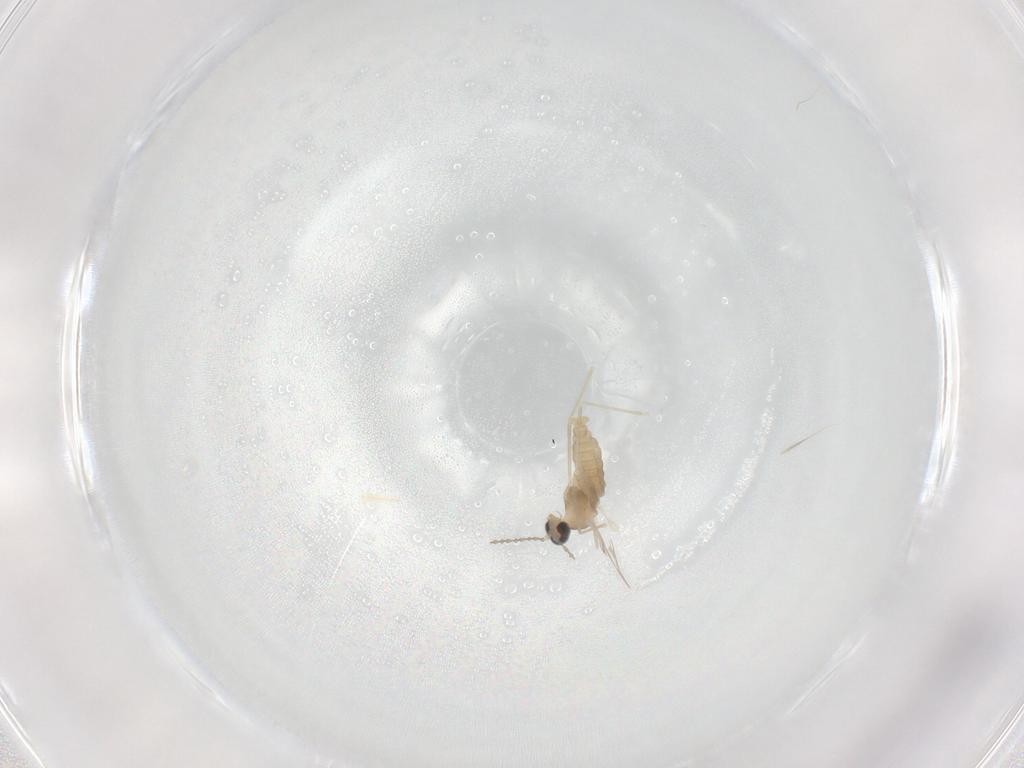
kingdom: Animalia
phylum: Arthropoda
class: Insecta
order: Diptera
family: Cecidomyiidae
